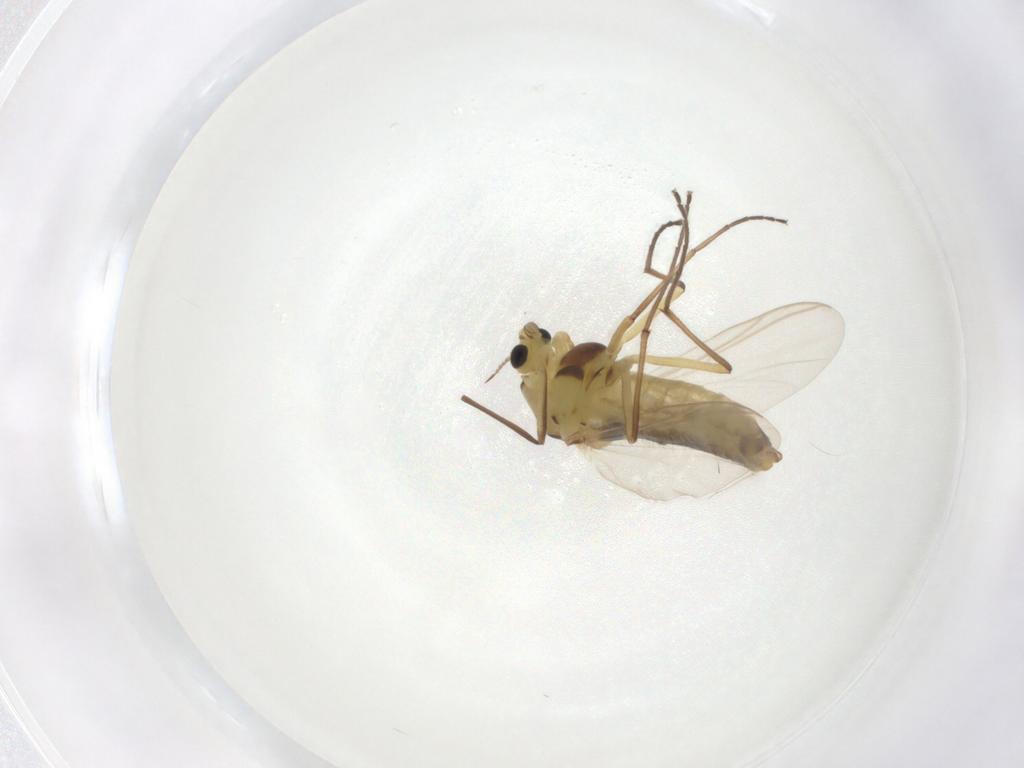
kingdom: Animalia
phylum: Arthropoda
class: Insecta
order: Diptera
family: Chironomidae
